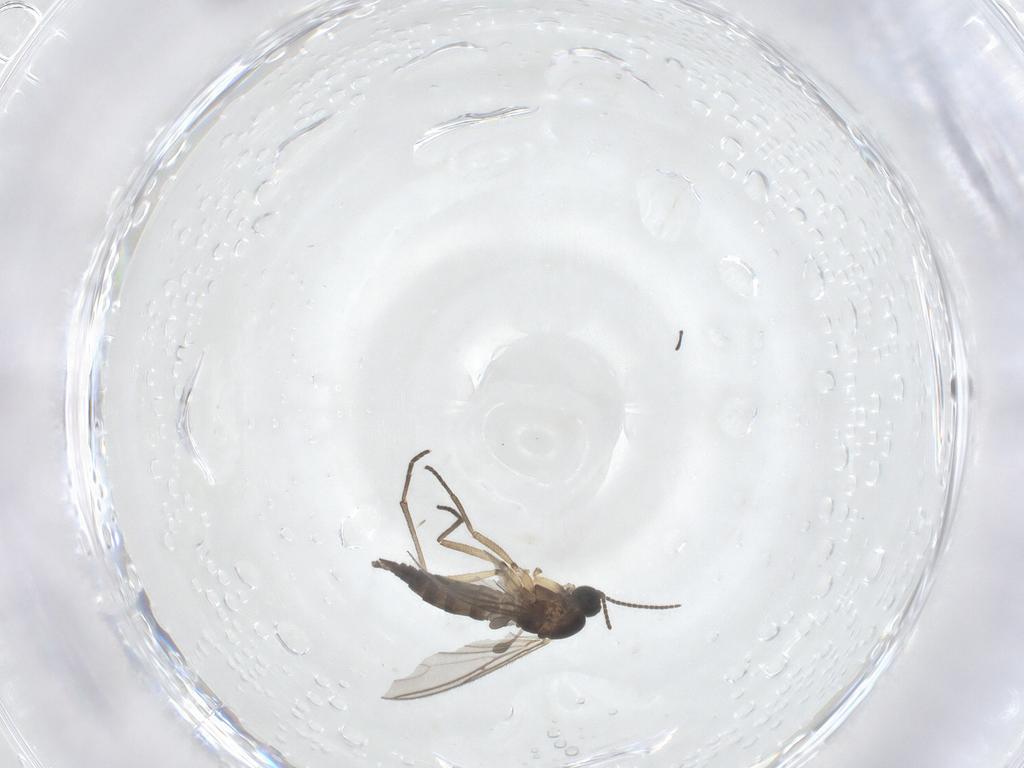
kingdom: Animalia
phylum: Arthropoda
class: Insecta
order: Diptera
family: Sciaridae
